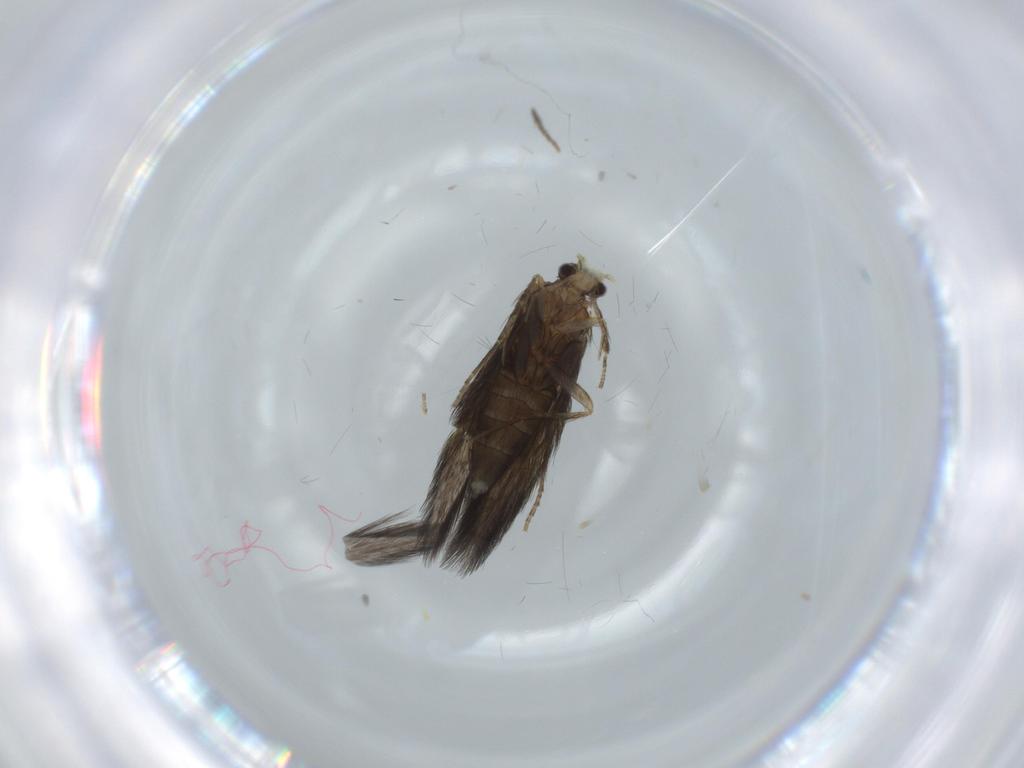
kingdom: Animalia
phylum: Arthropoda
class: Insecta
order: Trichoptera
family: Hydroptilidae
